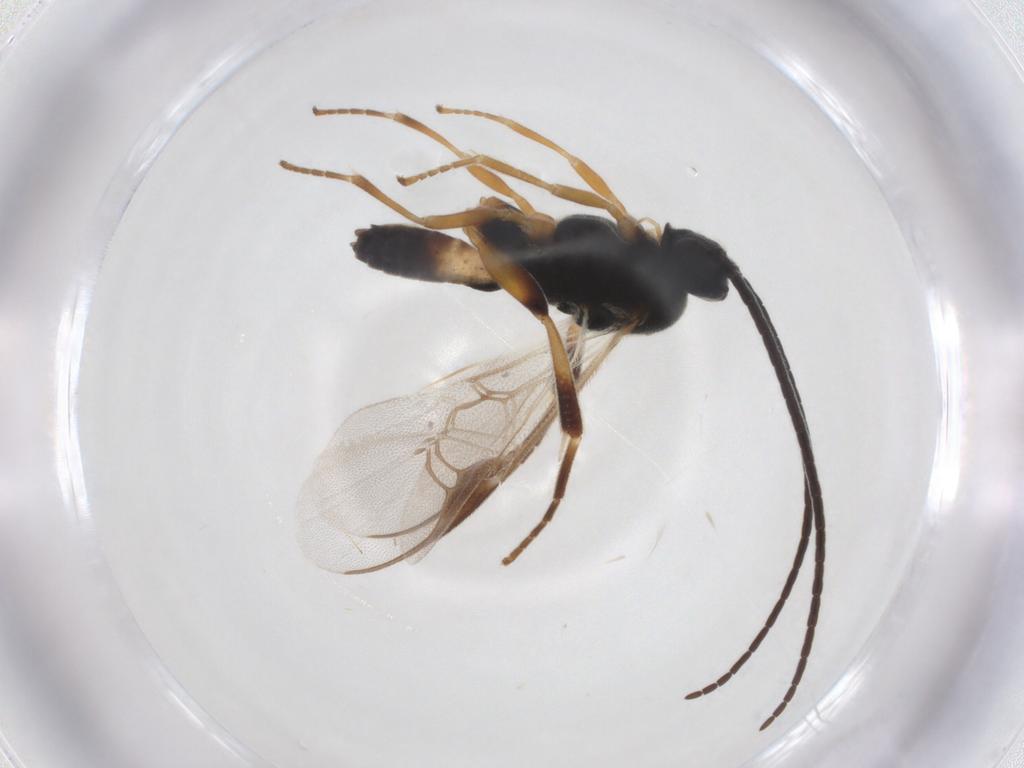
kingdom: Animalia
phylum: Arthropoda
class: Insecta
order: Hymenoptera
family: Braconidae
